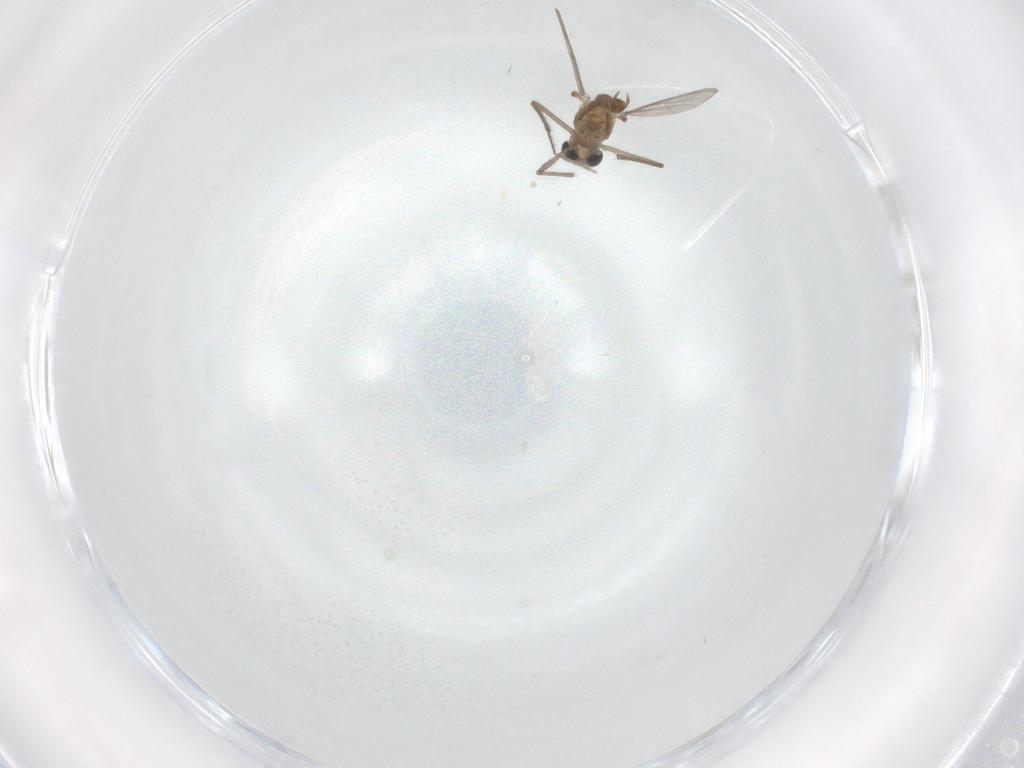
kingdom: Animalia
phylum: Arthropoda
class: Insecta
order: Diptera
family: Chironomidae
